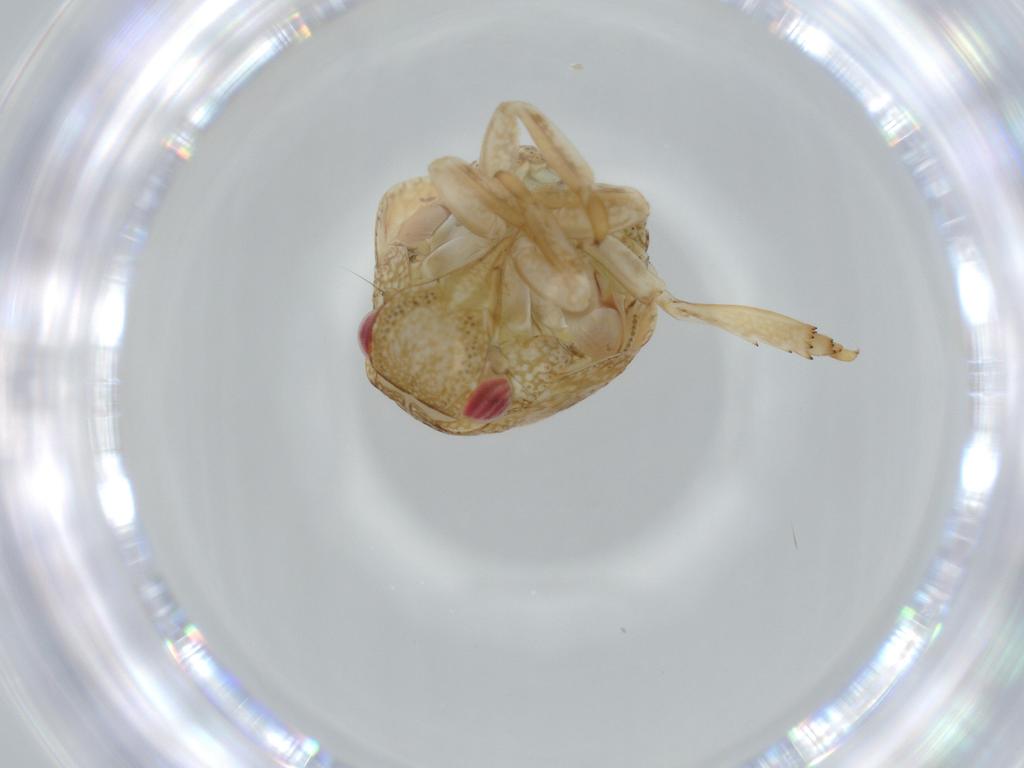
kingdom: Animalia
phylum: Arthropoda
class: Insecta
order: Hemiptera
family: Acanaloniidae
